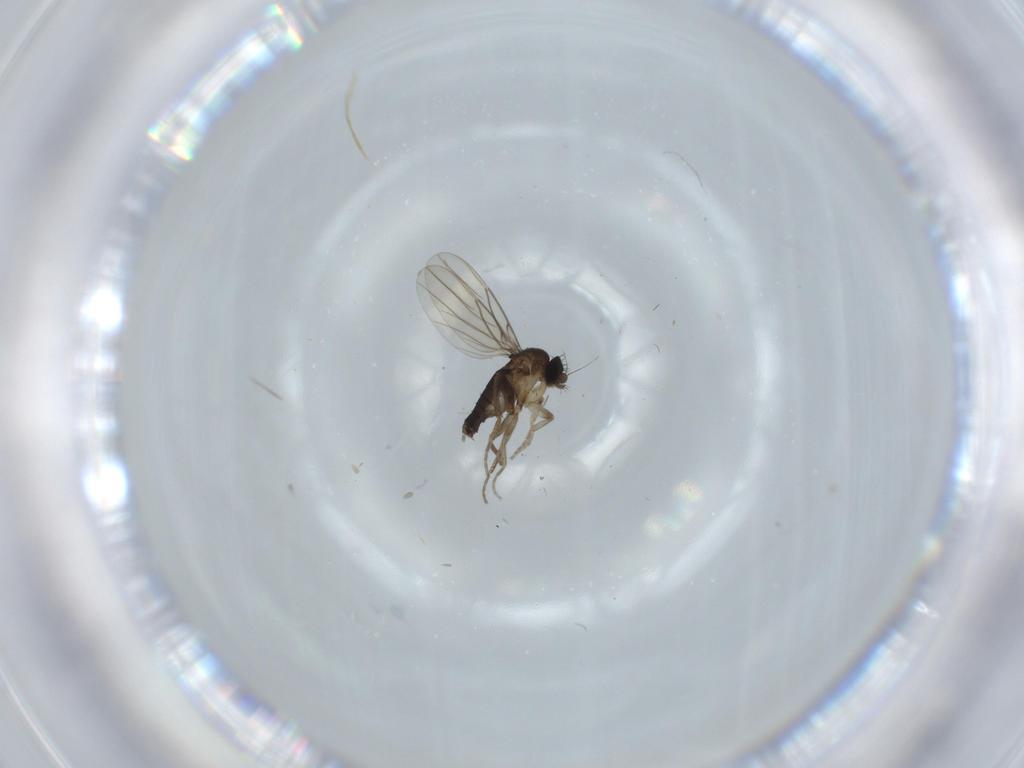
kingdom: Animalia
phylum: Arthropoda
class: Insecta
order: Diptera
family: Phoridae
